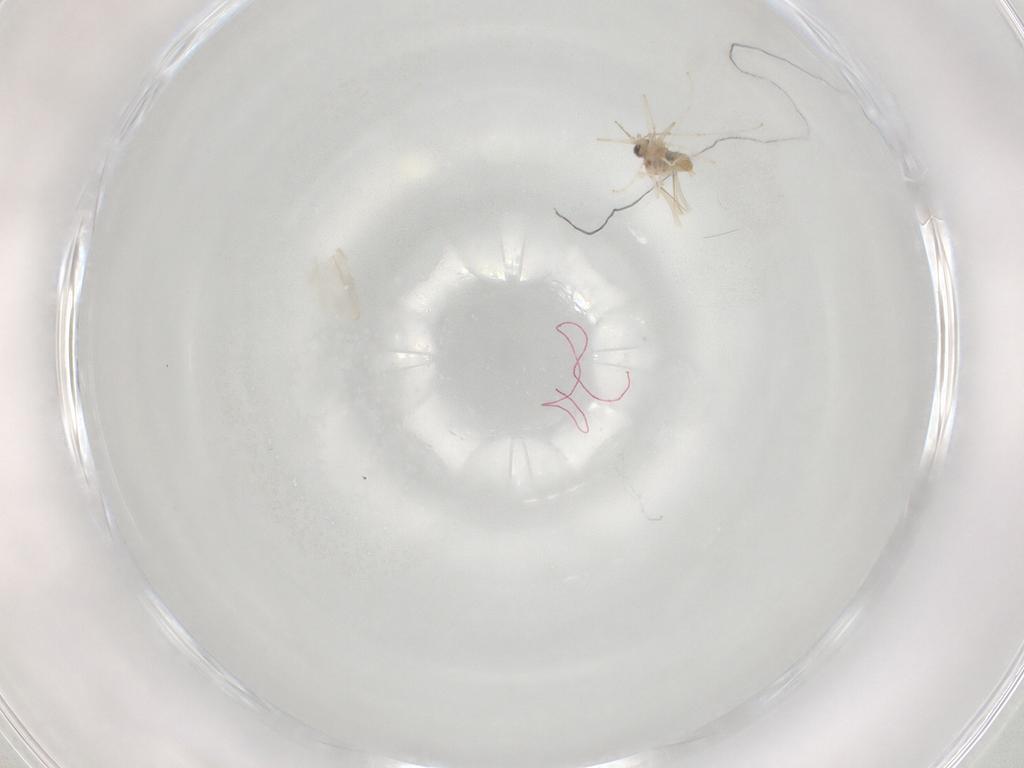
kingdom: Animalia
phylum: Arthropoda
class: Insecta
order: Diptera
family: Cecidomyiidae
